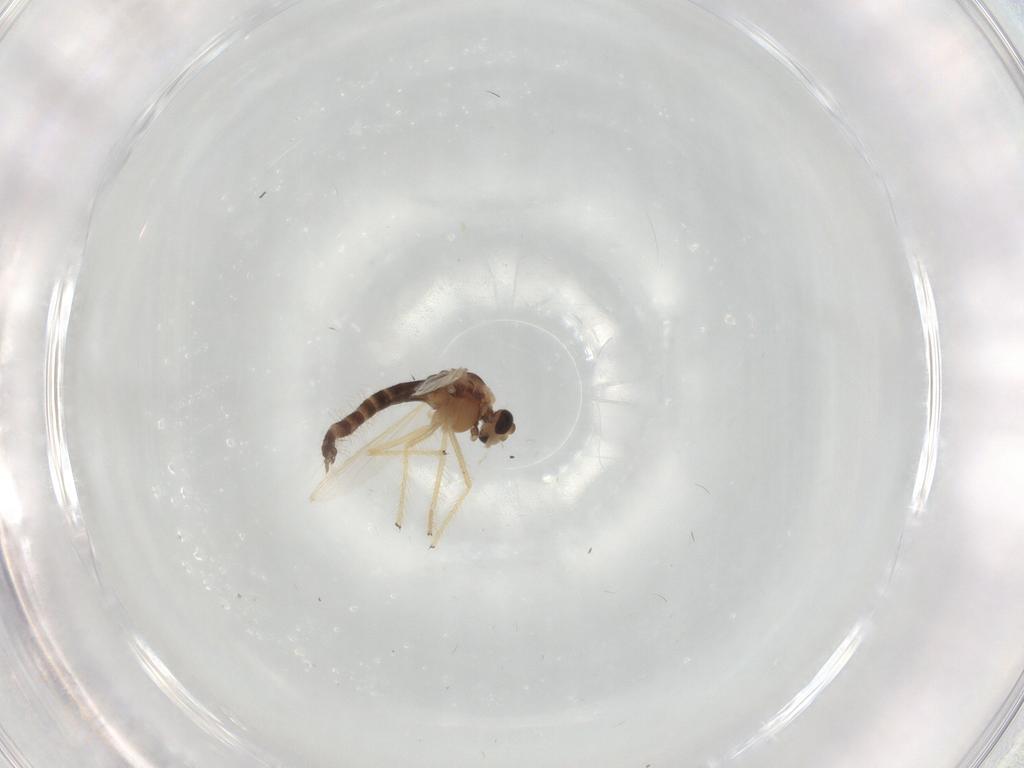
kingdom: Animalia
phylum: Arthropoda
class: Insecta
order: Diptera
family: Chironomidae
